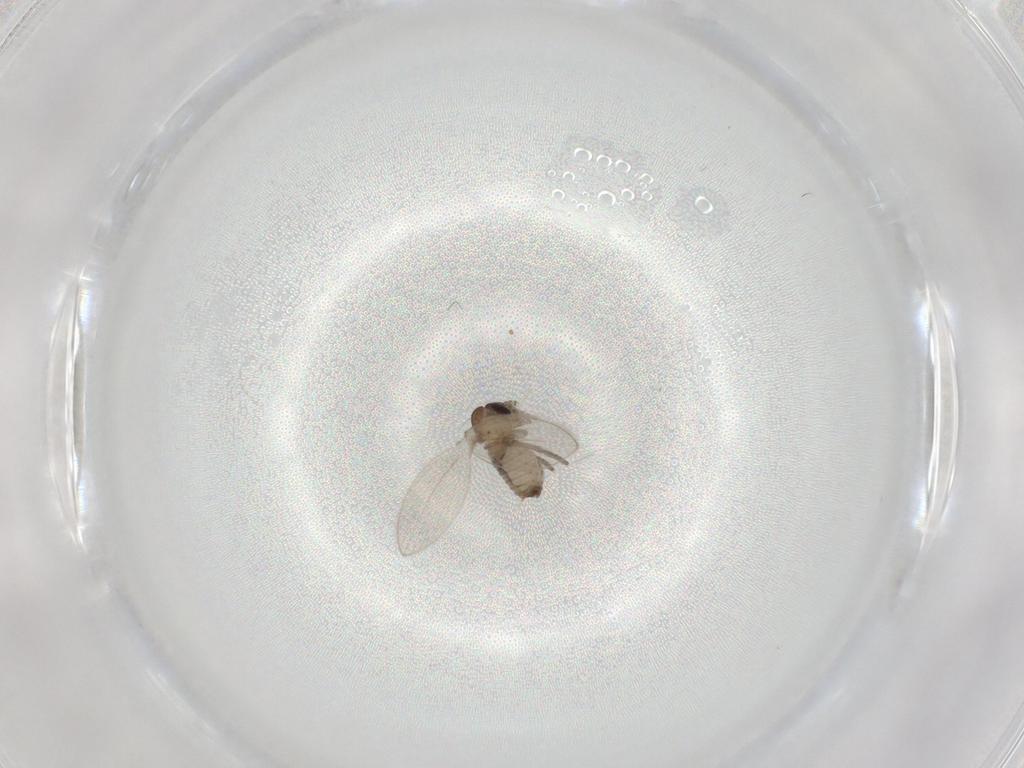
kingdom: Animalia
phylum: Arthropoda
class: Insecta
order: Diptera
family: Psychodidae
